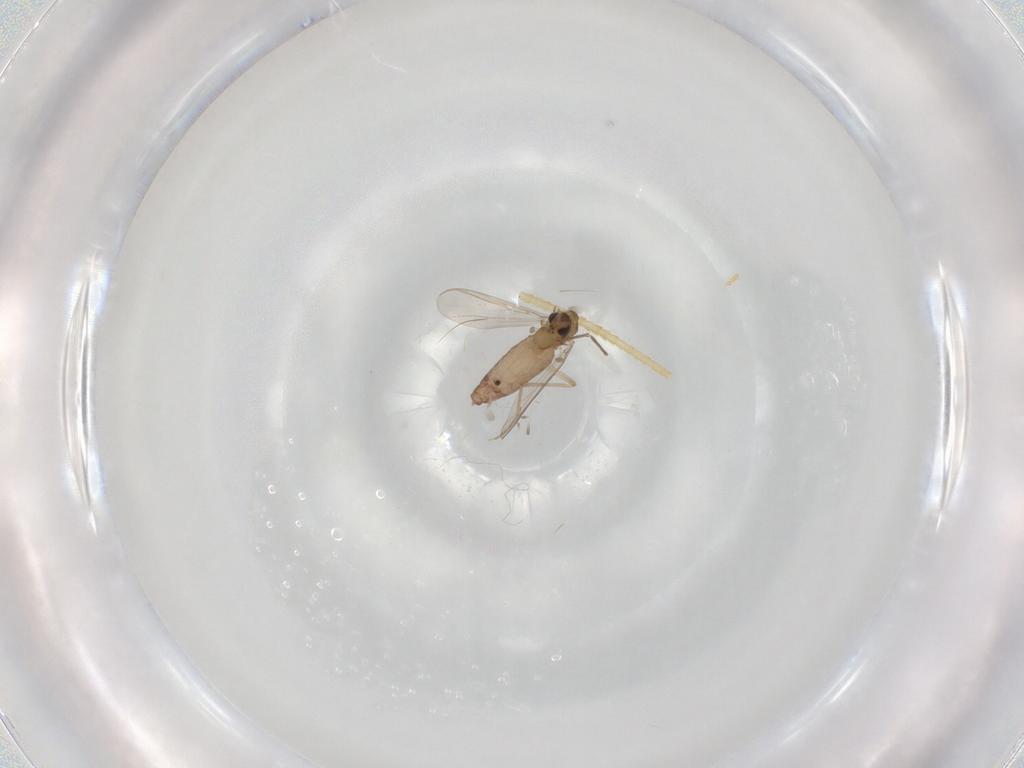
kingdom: Animalia
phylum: Arthropoda
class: Insecta
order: Diptera
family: Chironomidae
